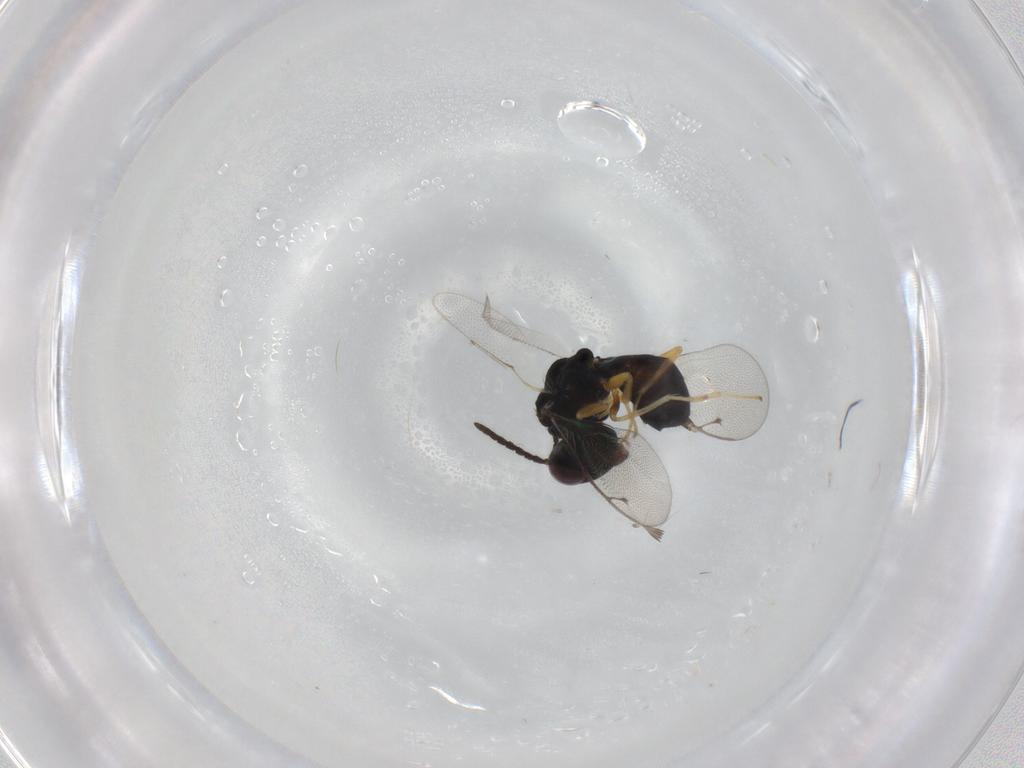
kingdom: Animalia
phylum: Arthropoda
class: Insecta
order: Hymenoptera
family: Pteromalidae
